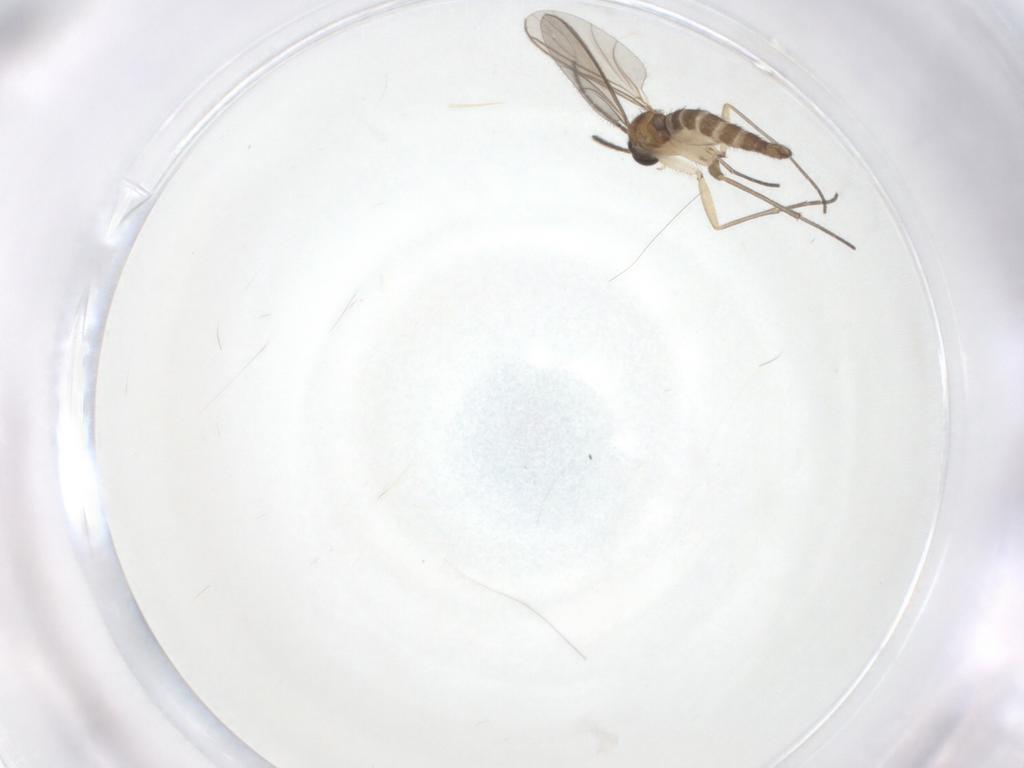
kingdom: Animalia
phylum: Arthropoda
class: Insecta
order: Diptera
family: Sciaridae
